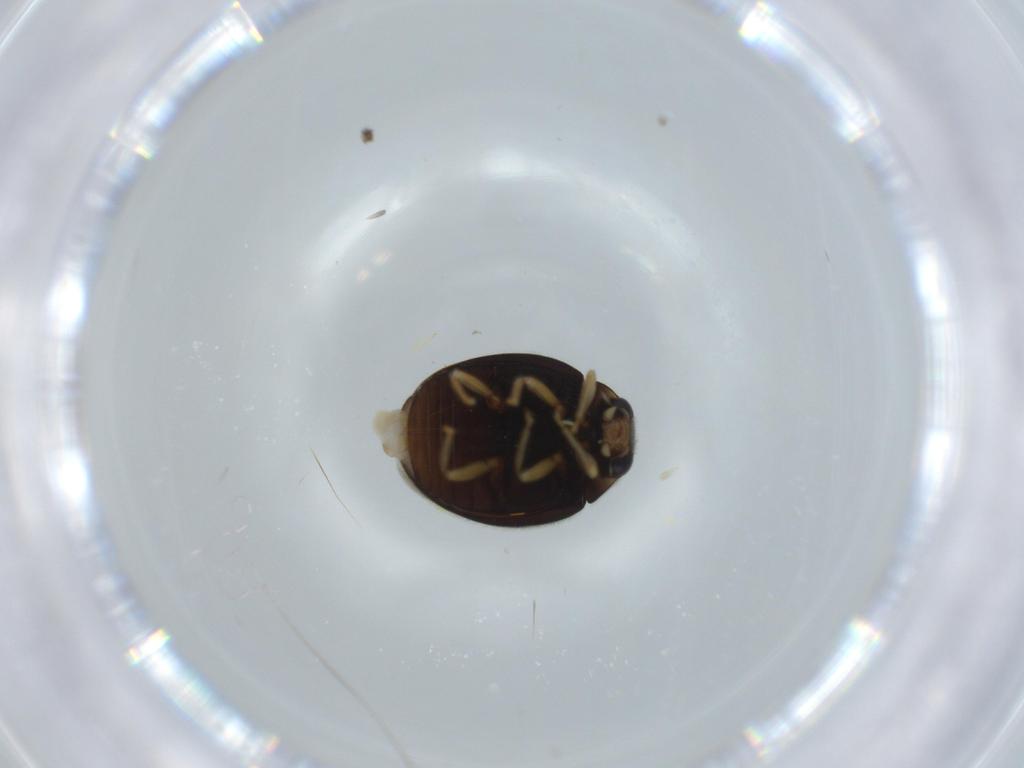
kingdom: Animalia
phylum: Arthropoda
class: Insecta
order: Coleoptera
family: Coccinellidae
